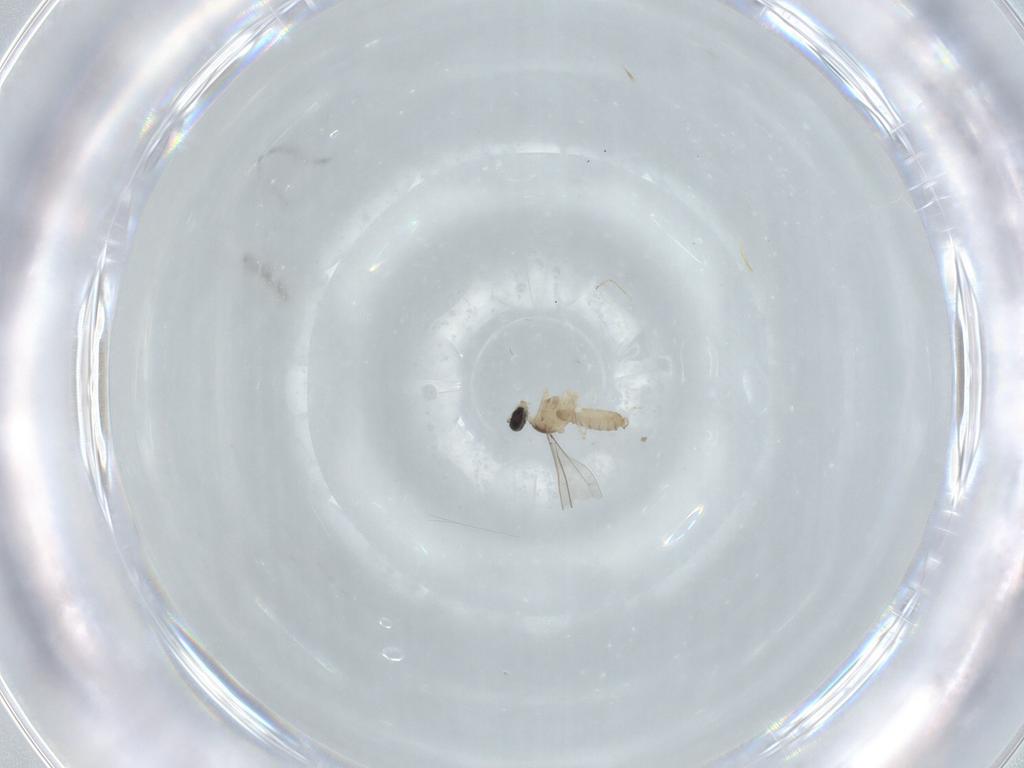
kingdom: Animalia
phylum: Arthropoda
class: Insecta
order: Diptera
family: Cecidomyiidae
